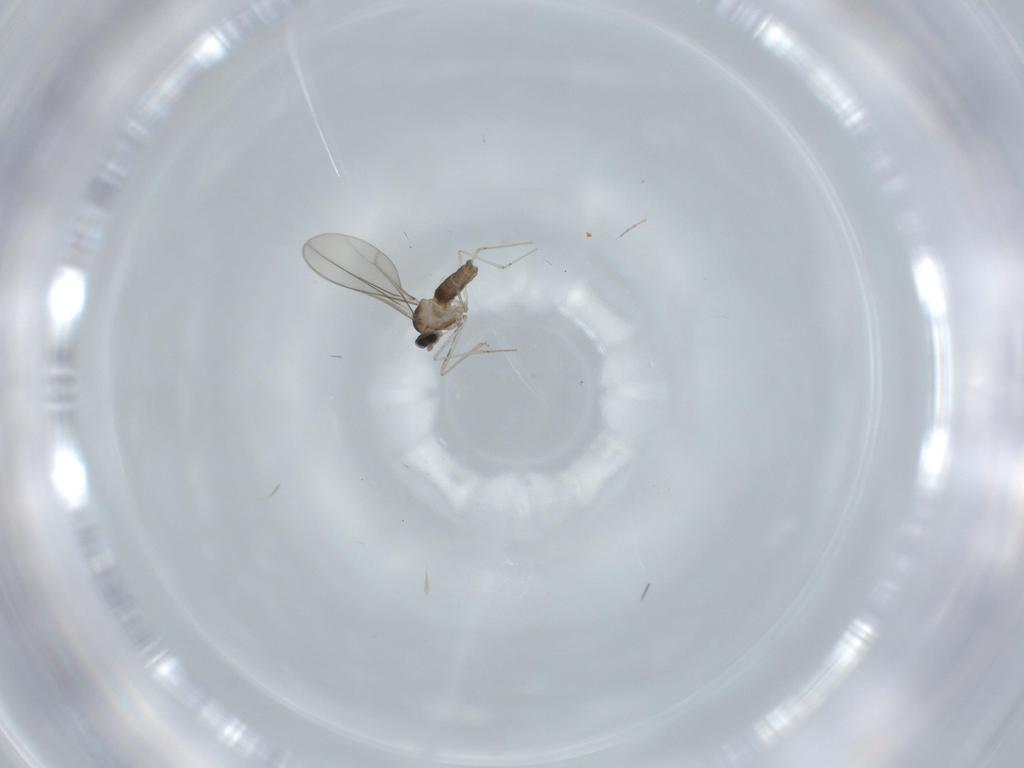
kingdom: Animalia
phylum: Arthropoda
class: Insecta
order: Diptera
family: Cecidomyiidae
